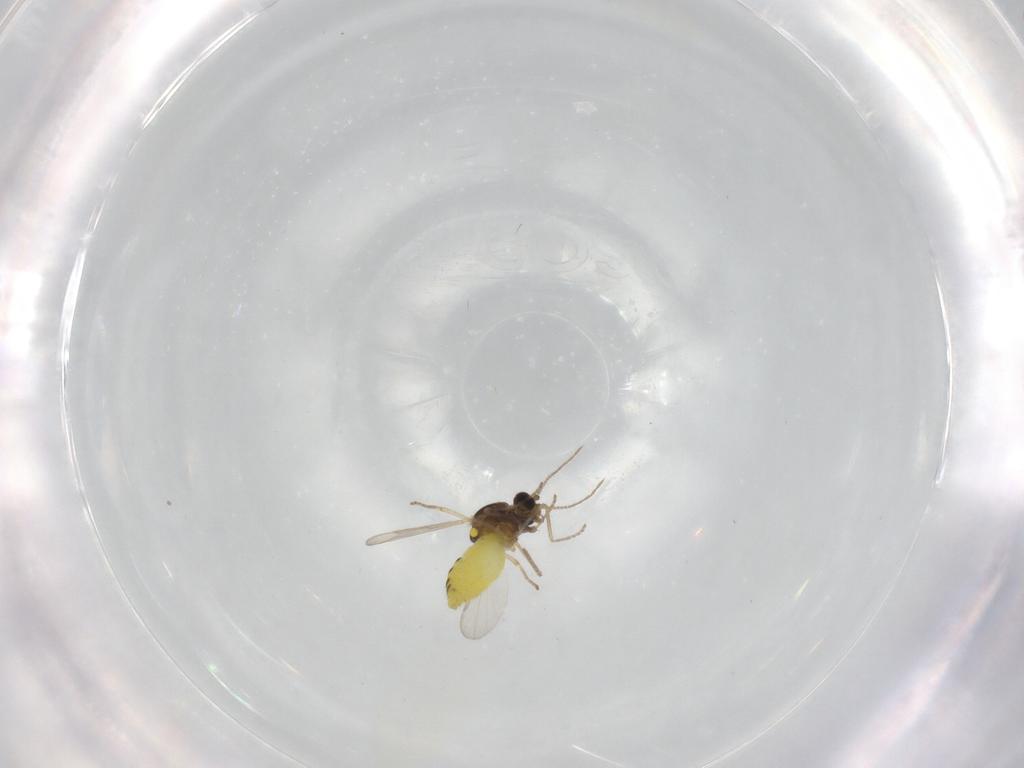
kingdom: Animalia
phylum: Arthropoda
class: Insecta
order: Diptera
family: Ceratopogonidae
